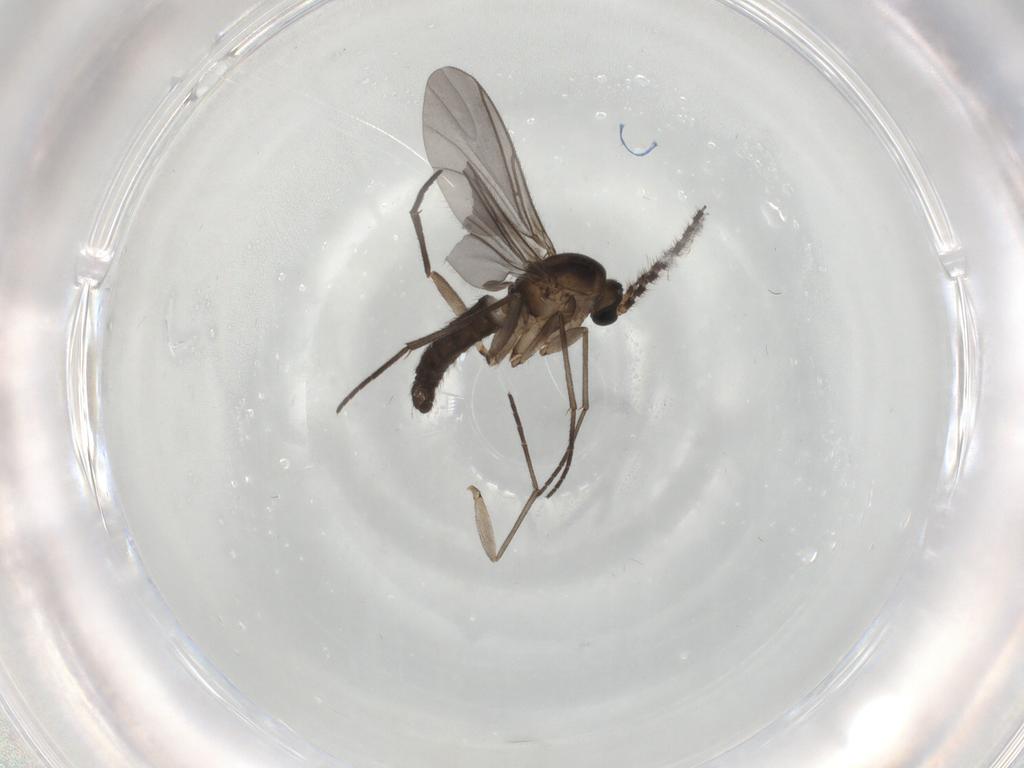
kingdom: Animalia
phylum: Arthropoda
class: Insecta
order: Diptera
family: Sciaridae
